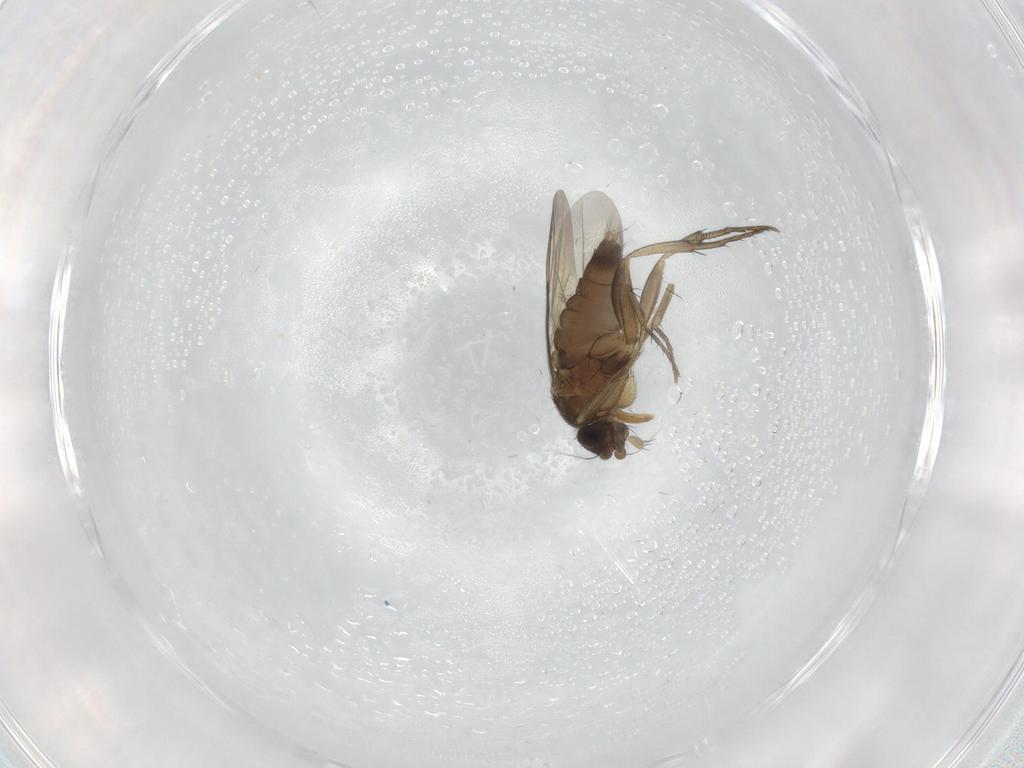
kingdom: Animalia
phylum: Arthropoda
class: Insecta
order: Diptera
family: Phoridae
